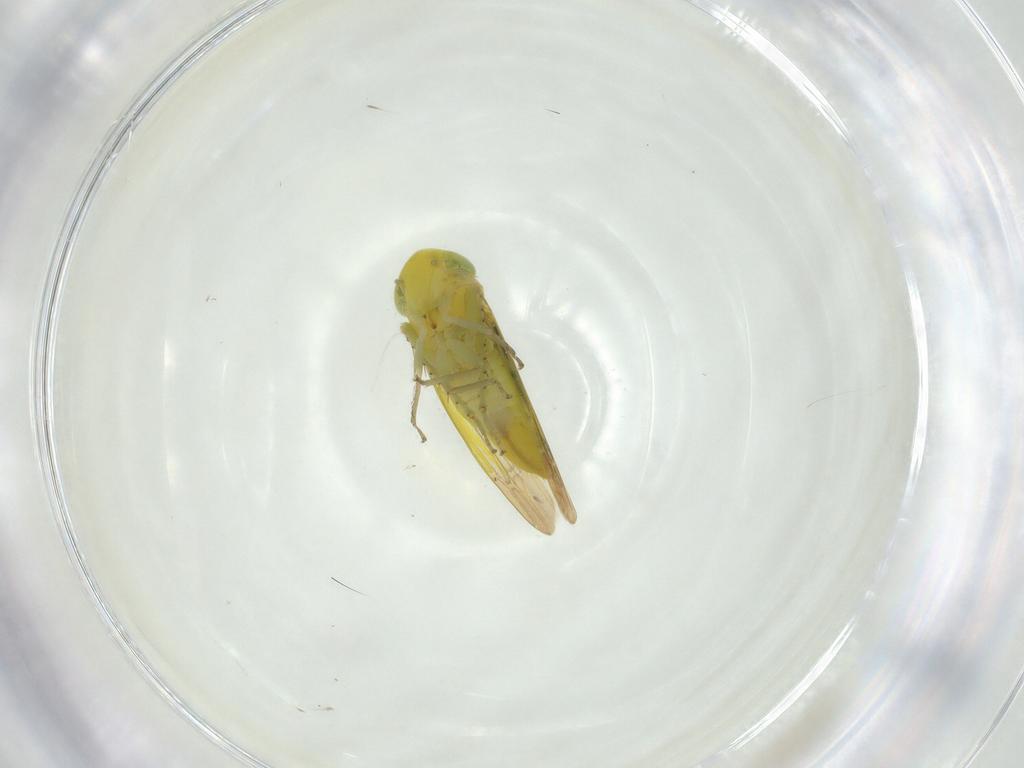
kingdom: Animalia
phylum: Arthropoda
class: Insecta
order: Hemiptera
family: Cicadellidae
